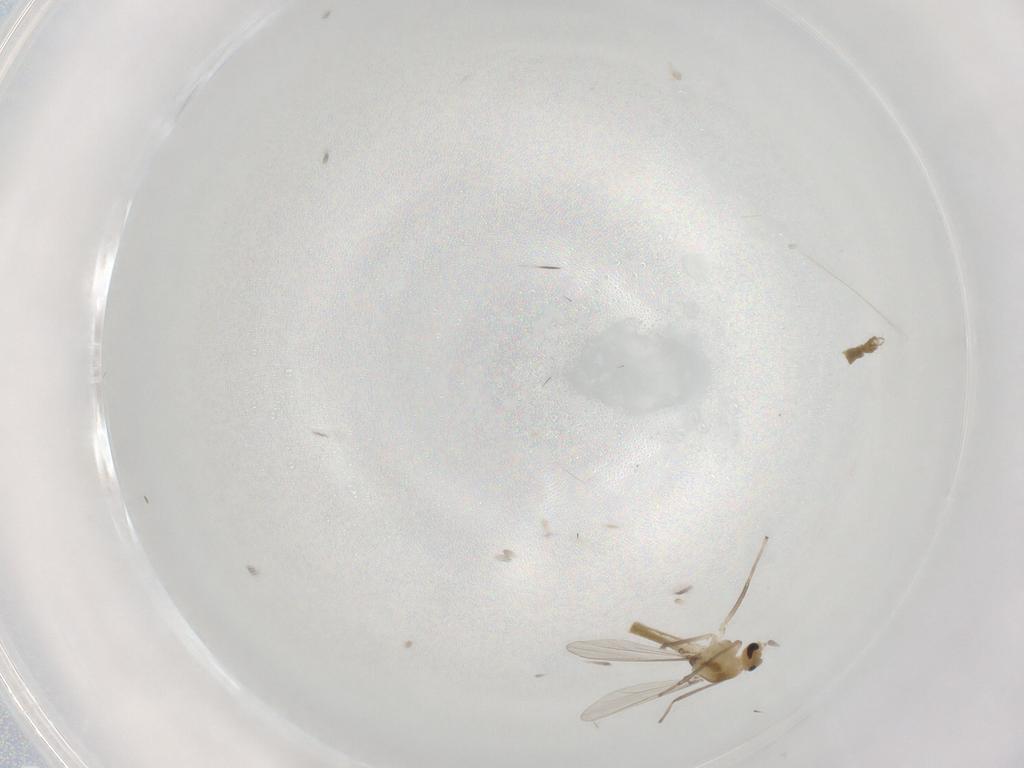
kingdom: Animalia
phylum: Arthropoda
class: Insecta
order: Diptera
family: Chironomidae
